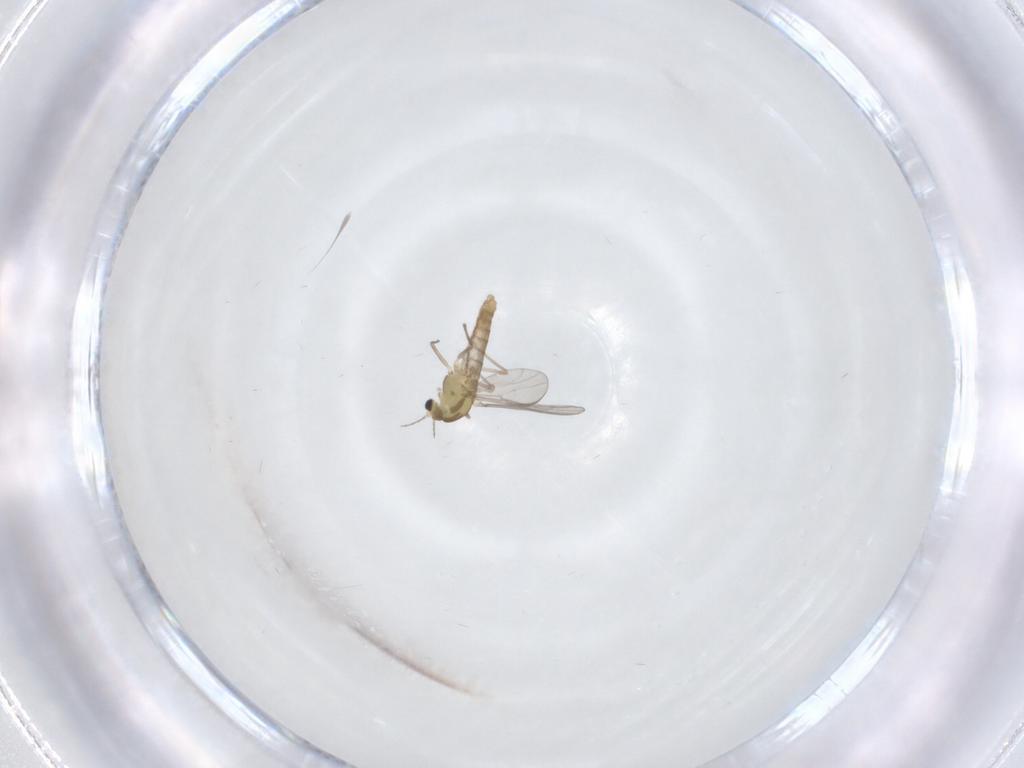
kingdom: Animalia
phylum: Arthropoda
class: Insecta
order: Diptera
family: Chironomidae
